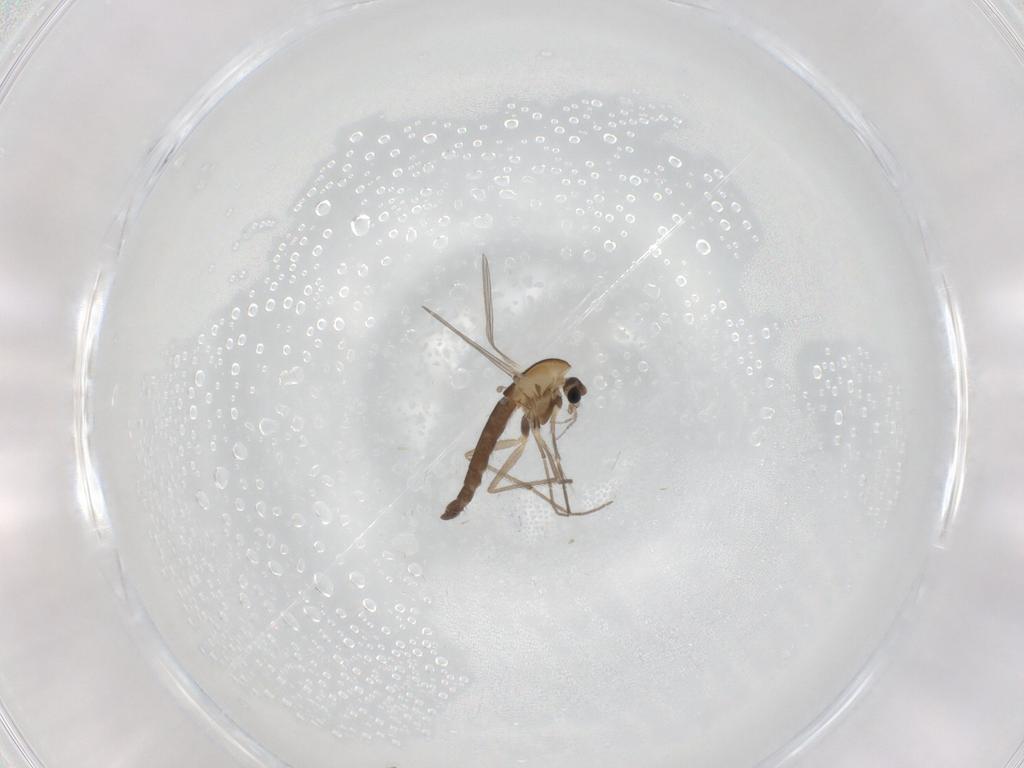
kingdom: Animalia
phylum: Arthropoda
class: Insecta
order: Diptera
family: Chironomidae
